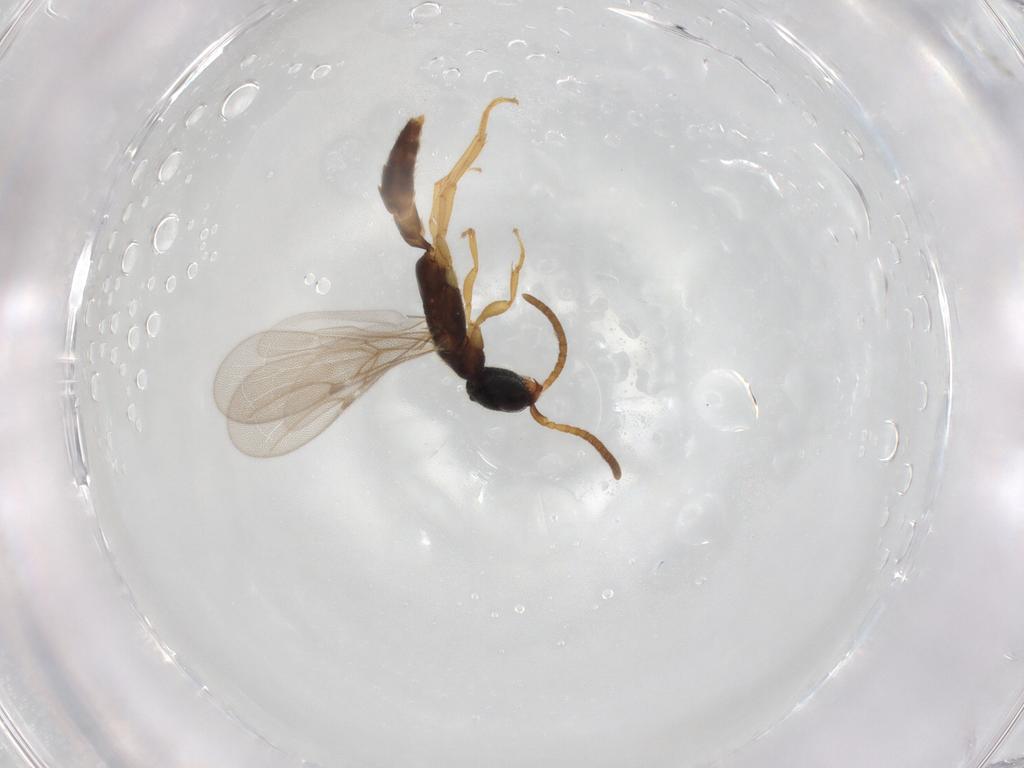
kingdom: Animalia
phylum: Arthropoda
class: Insecta
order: Hymenoptera
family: Bethylidae
